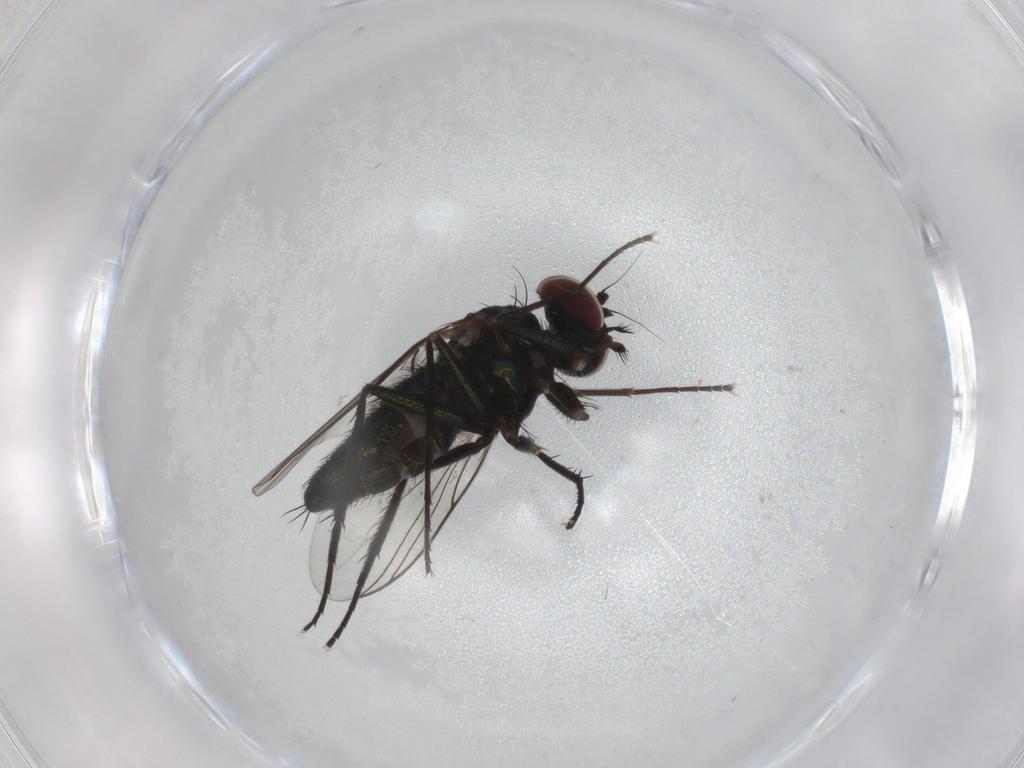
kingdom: Animalia
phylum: Arthropoda
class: Insecta
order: Diptera
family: Dolichopodidae
